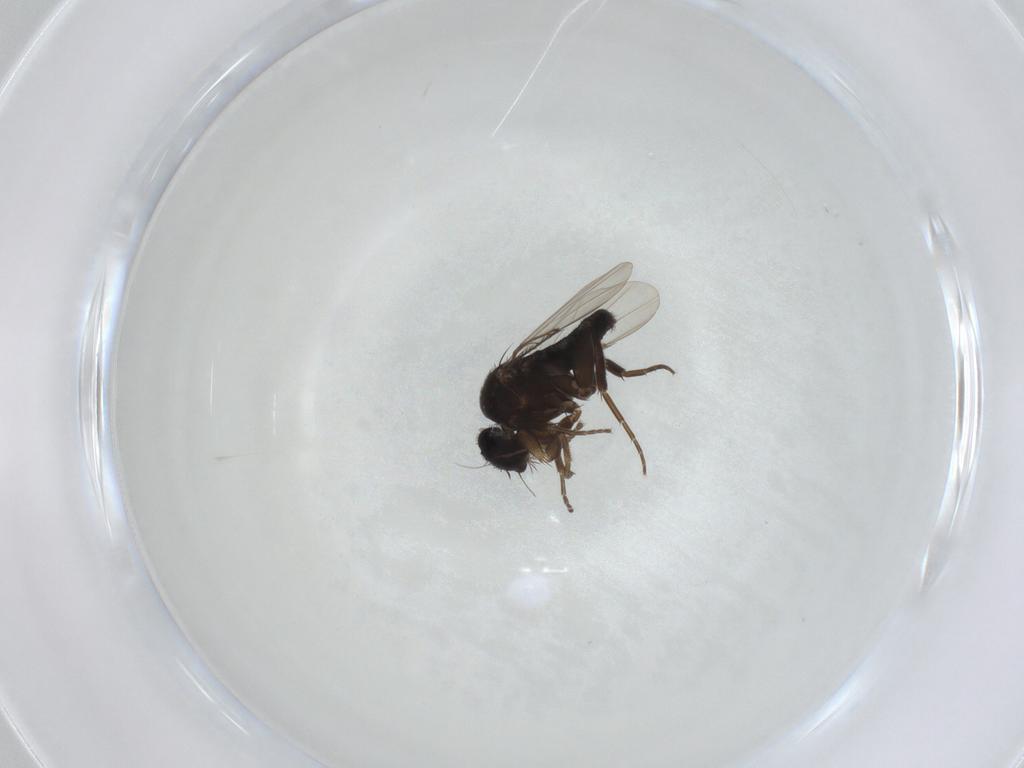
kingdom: Animalia
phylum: Arthropoda
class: Insecta
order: Diptera
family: Phoridae
